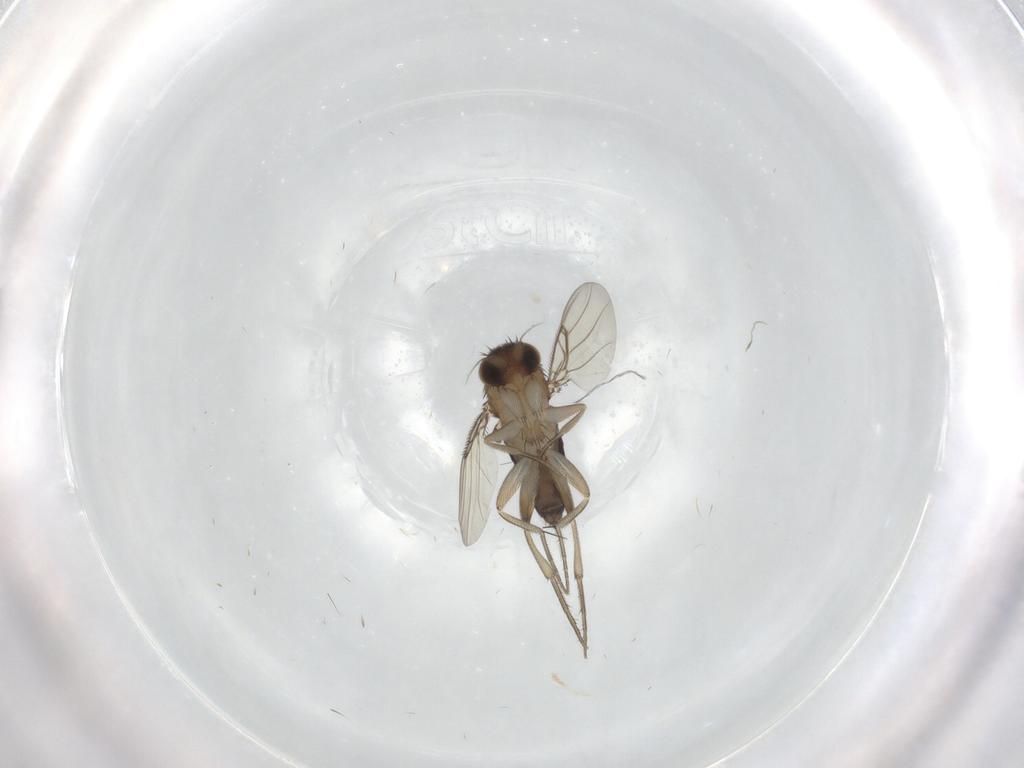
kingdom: Animalia
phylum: Arthropoda
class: Insecta
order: Diptera
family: Phoridae
